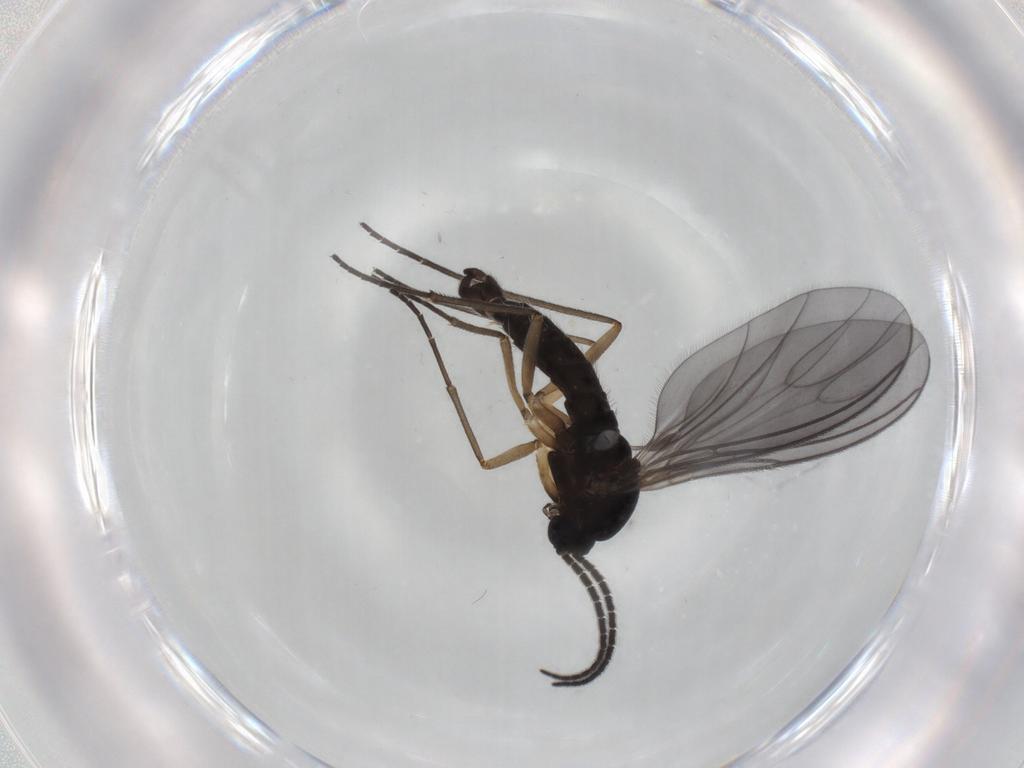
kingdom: Animalia
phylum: Arthropoda
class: Insecta
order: Diptera
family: Sciaridae
